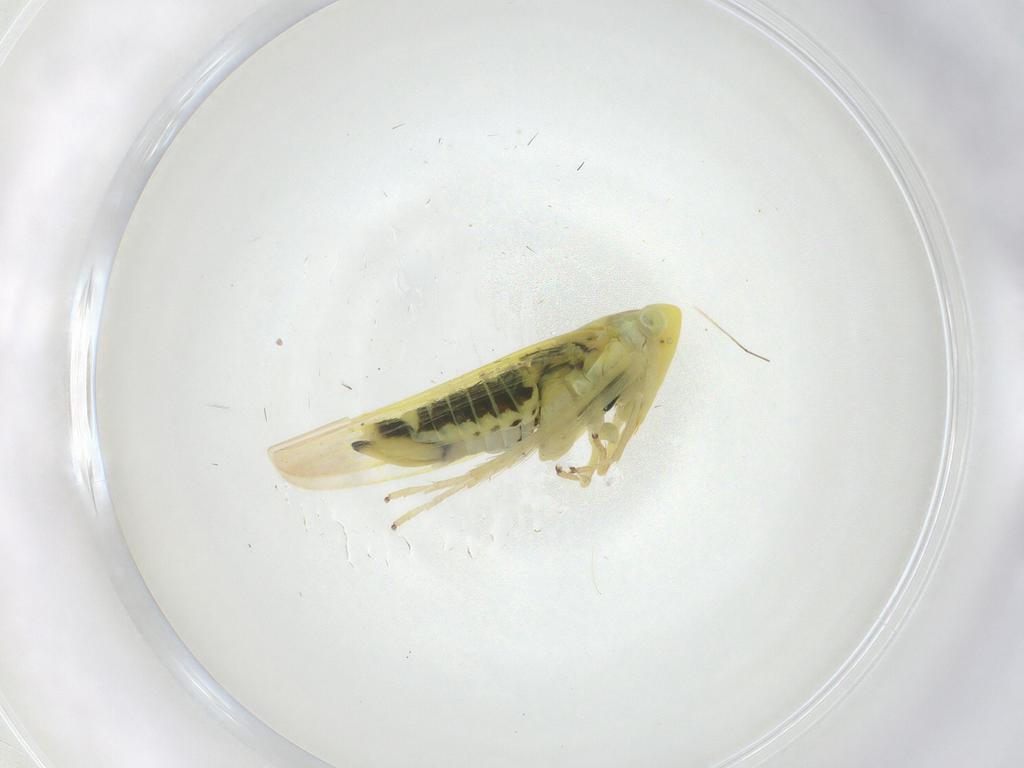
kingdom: Animalia
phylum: Arthropoda
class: Insecta
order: Hemiptera
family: Cicadellidae
